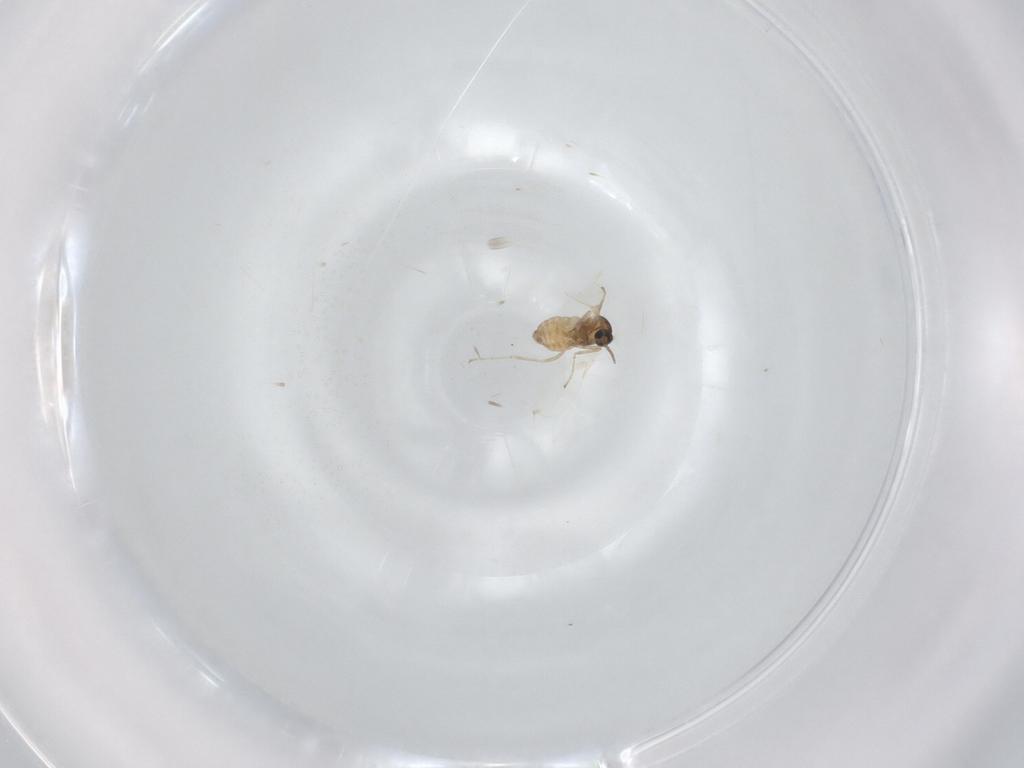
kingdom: Animalia
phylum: Arthropoda
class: Insecta
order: Diptera
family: Cecidomyiidae
